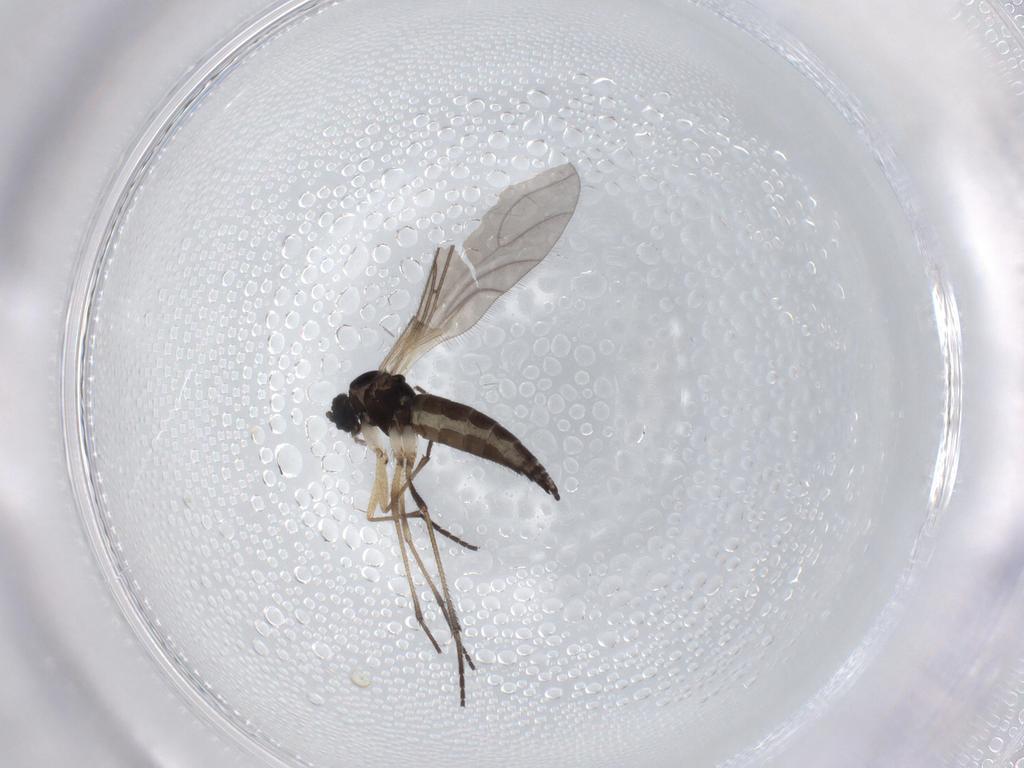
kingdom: Animalia
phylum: Arthropoda
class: Insecta
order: Diptera
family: Sciaridae
